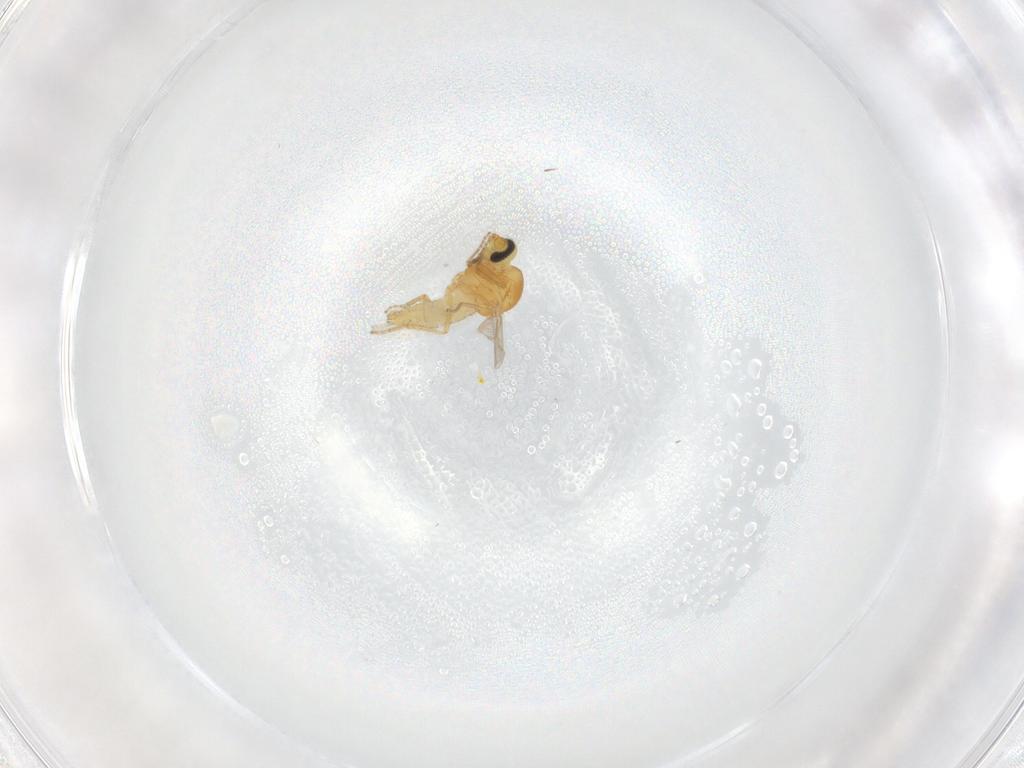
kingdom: Animalia
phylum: Arthropoda
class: Insecta
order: Diptera
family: Ceratopogonidae
